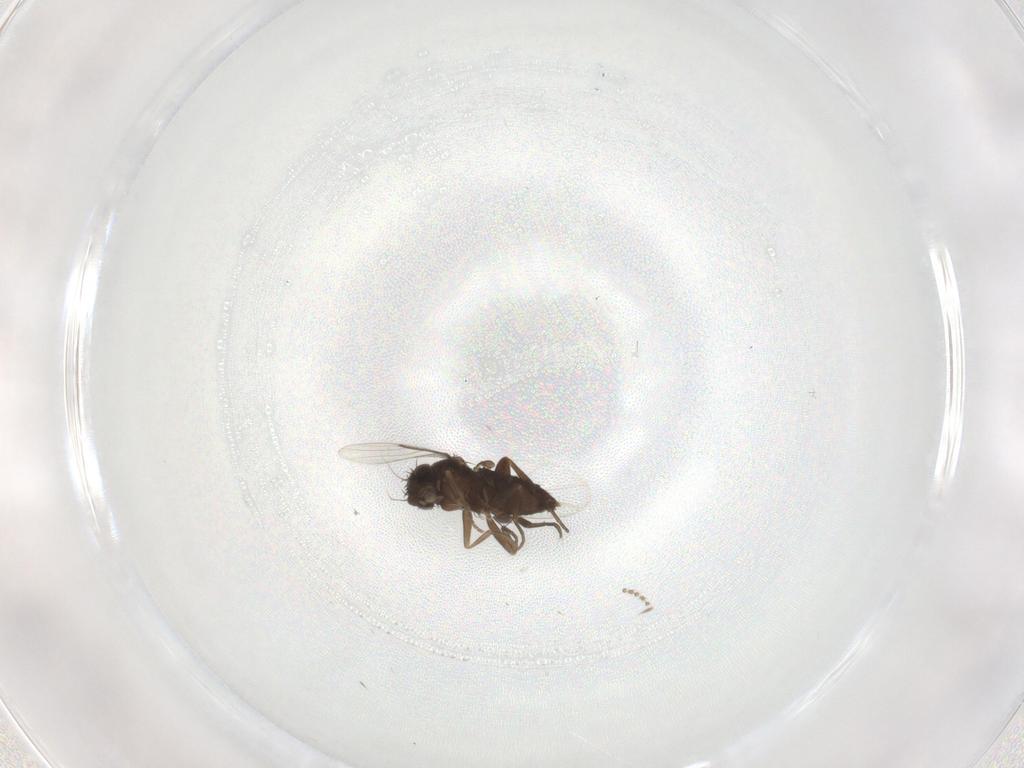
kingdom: Animalia
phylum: Arthropoda
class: Insecta
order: Diptera
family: Phoridae
